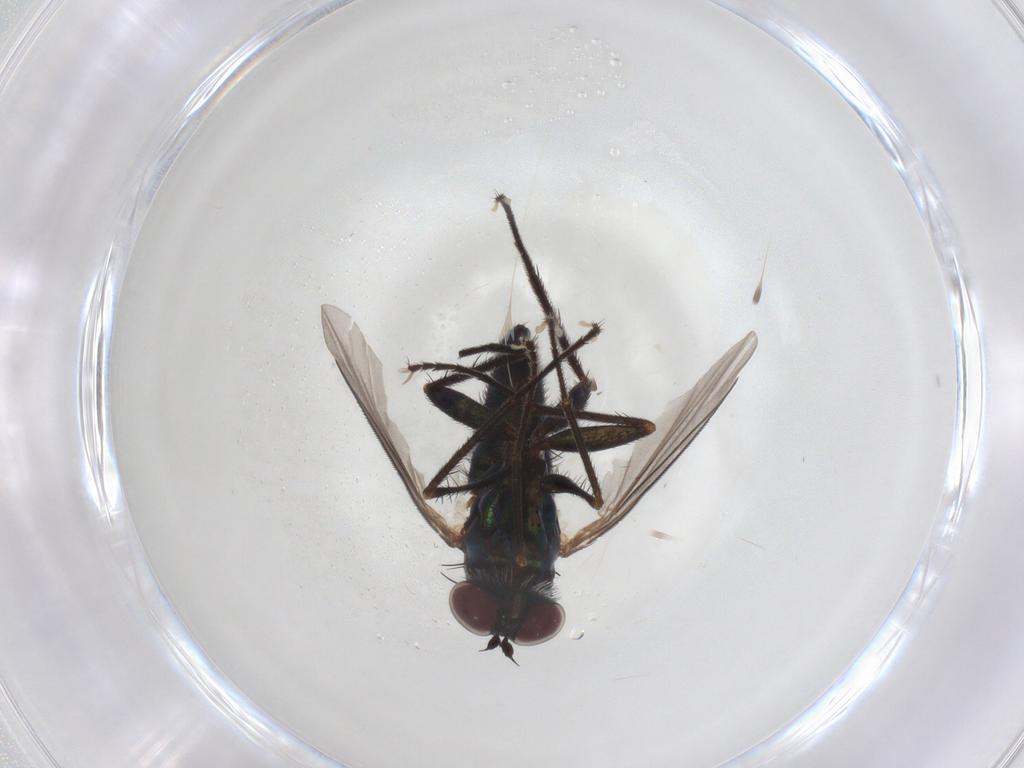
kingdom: Animalia
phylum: Arthropoda
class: Insecta
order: Diptera
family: Dolichopodidae
